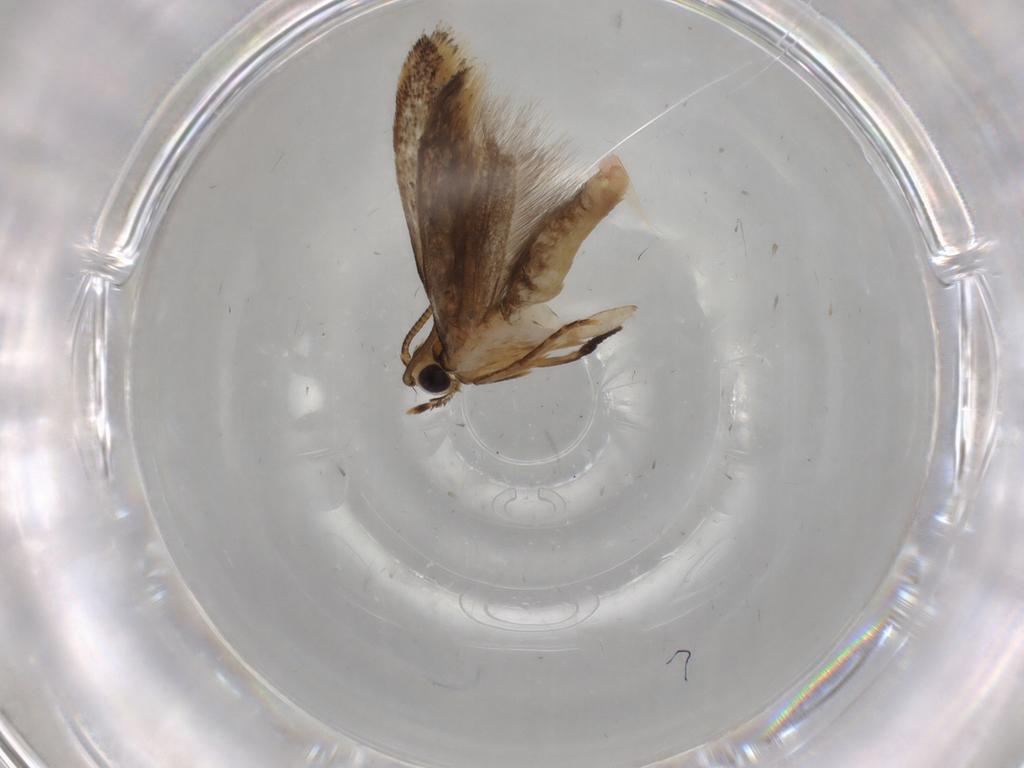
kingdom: Animalia
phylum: Arthropoda
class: Insecta
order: Lepidoptera
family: Tineidae
